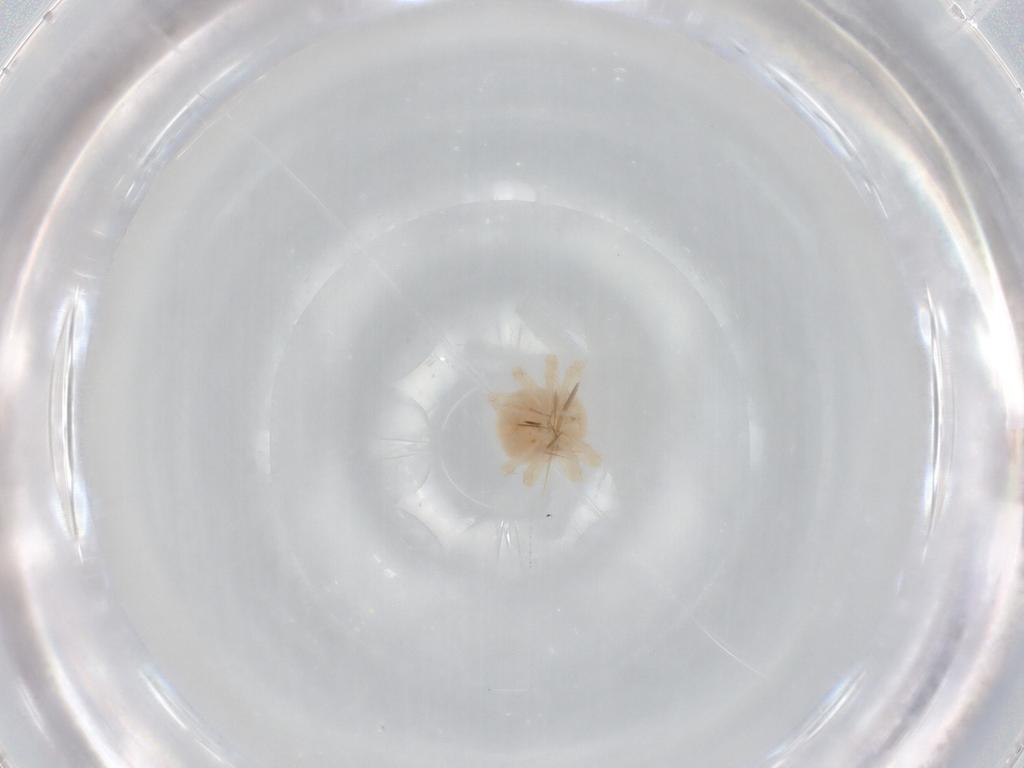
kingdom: Animalia
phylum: Arthropoda
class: Arachnida
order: Trombidiformes
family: Anystidae
